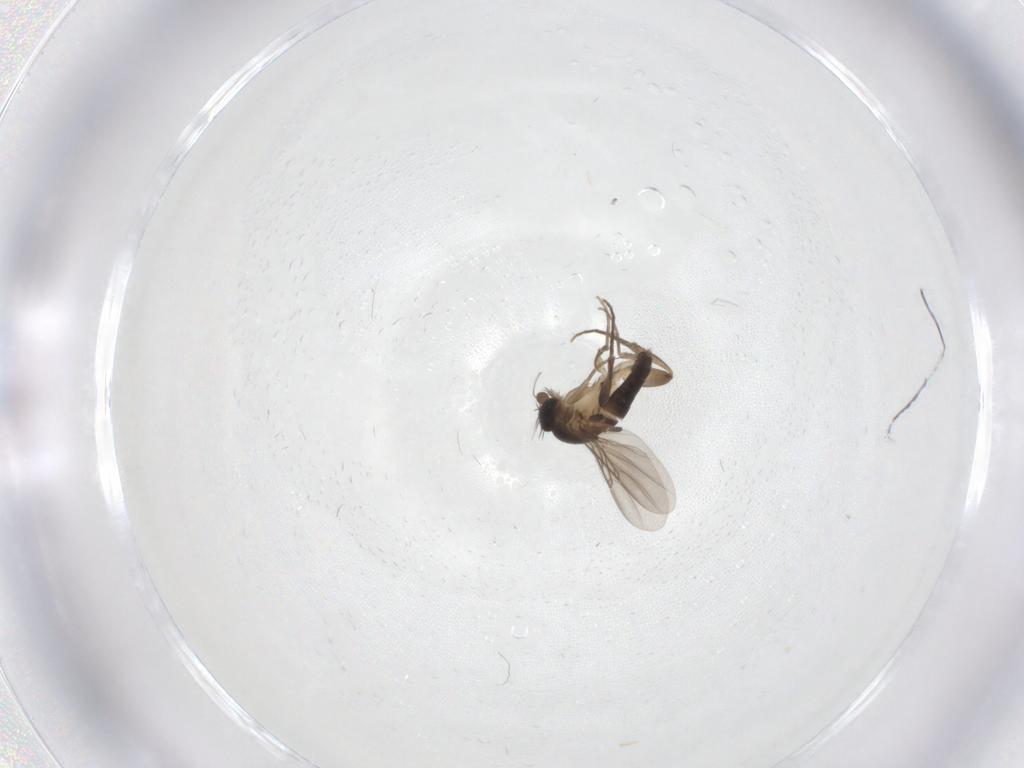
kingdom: Animalia
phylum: Arthropoda
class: Insecta
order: Diptera
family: Phoridae
